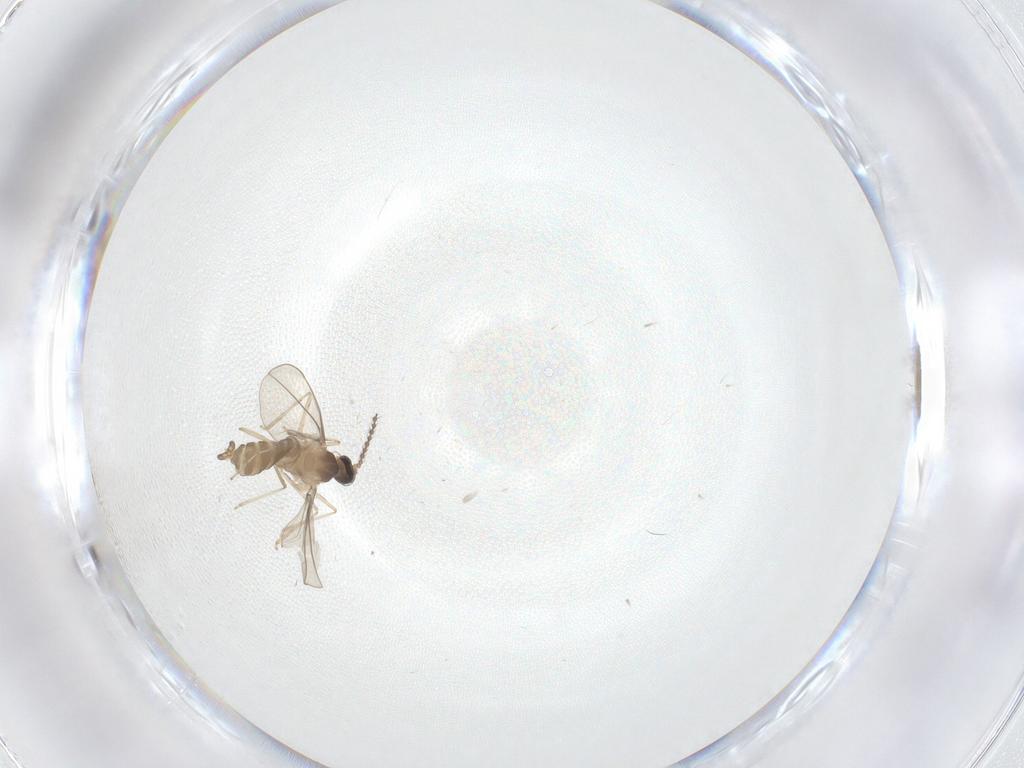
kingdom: Animalia
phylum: Arthropoda
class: Insecta
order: Diptera
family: Cecidomyiidae
